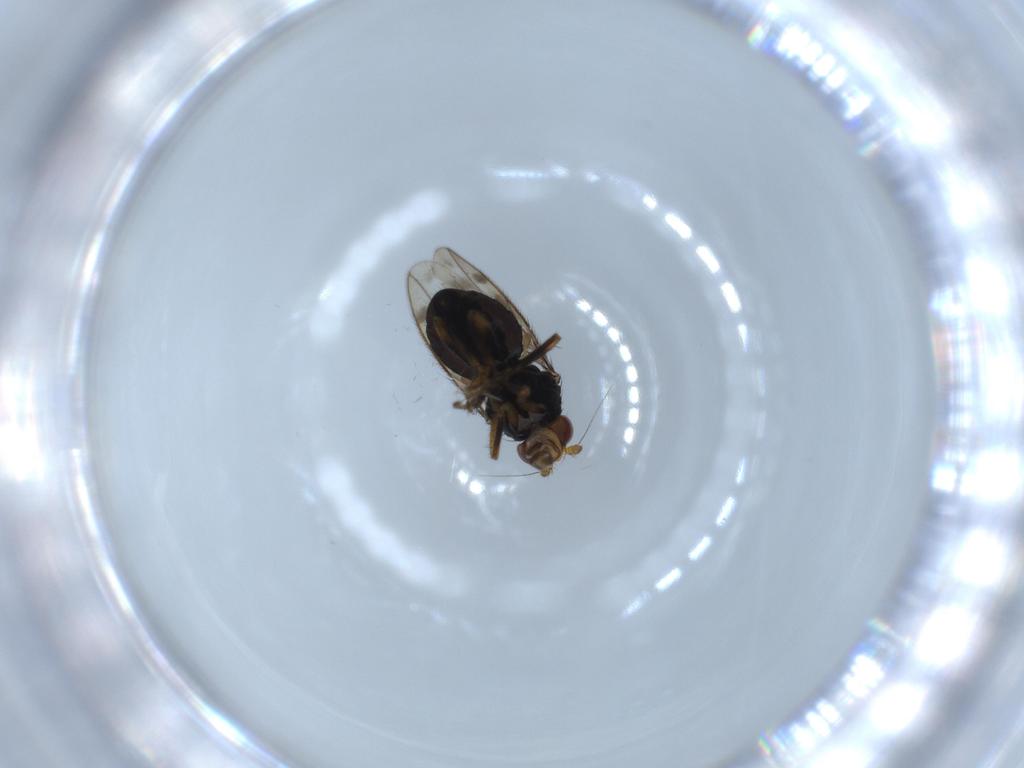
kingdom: Animalia
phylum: Arthropoda
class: Insecta
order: Diptera
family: Sphaeroceridae
